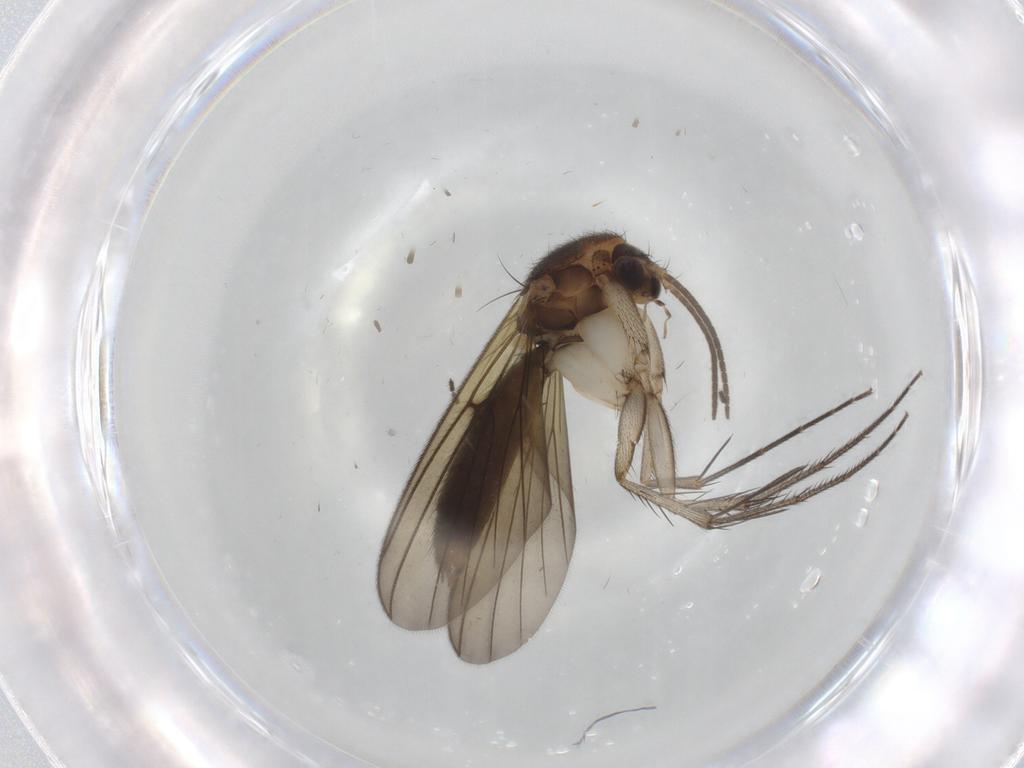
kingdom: Animalia
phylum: Arthropoda
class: Insecta
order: Diptera
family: Mycetophilidae
